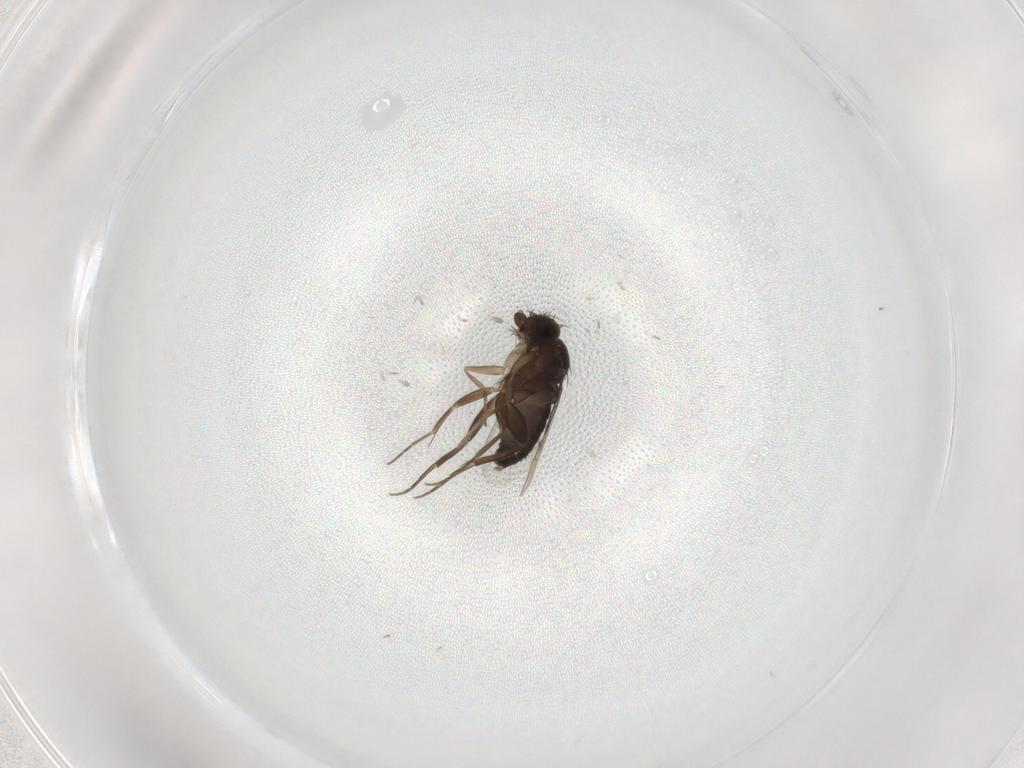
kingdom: Animalia
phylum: Arthropoda
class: Insecta
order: Diptera
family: Phoridae
